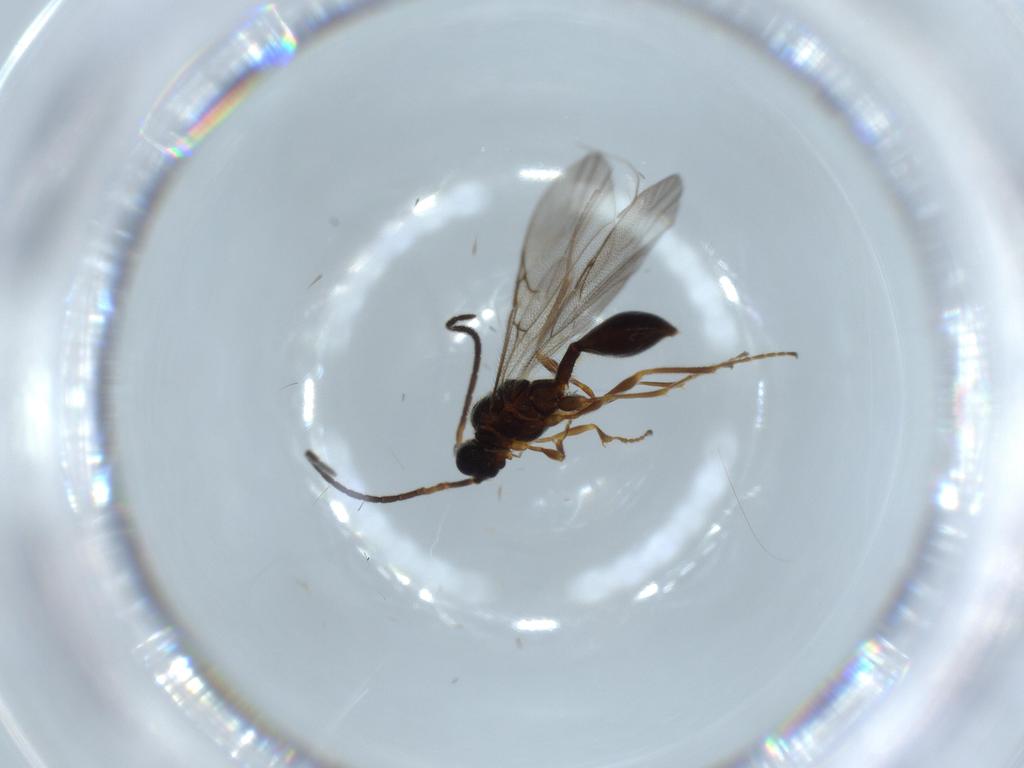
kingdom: Animalia
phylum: Arthropoda
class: Insecta
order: Hymenoptera
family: Diapriidae
